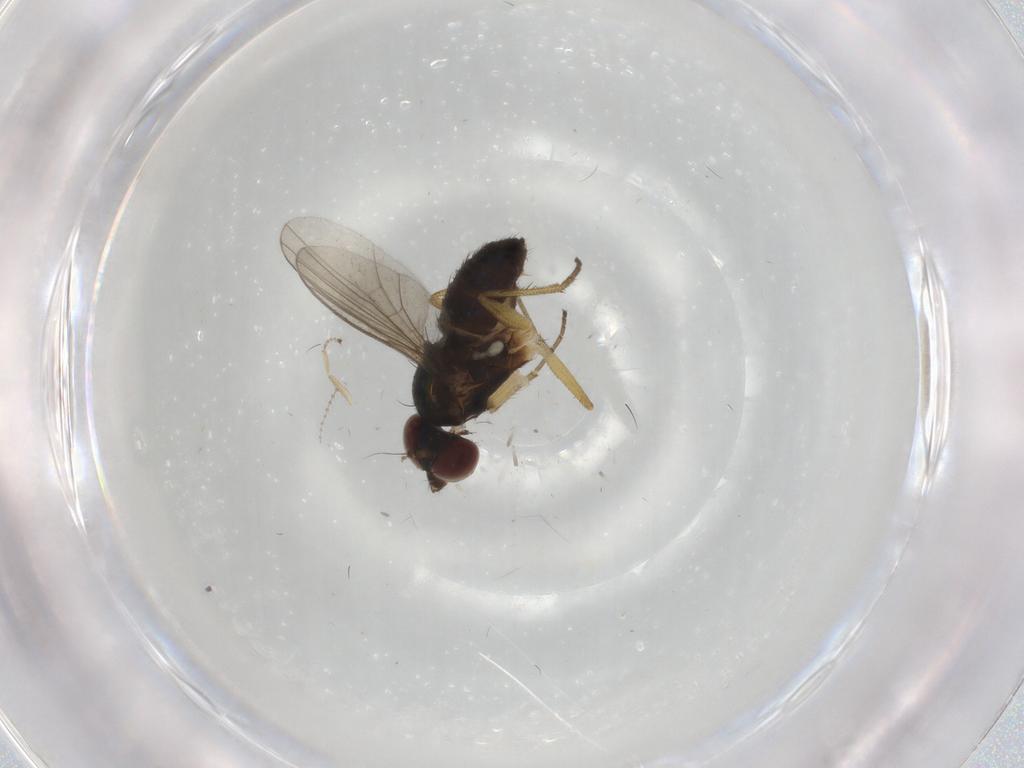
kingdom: Animalia
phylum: Arthropoda
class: Insecta
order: Diptera
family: Dolichopodidae
